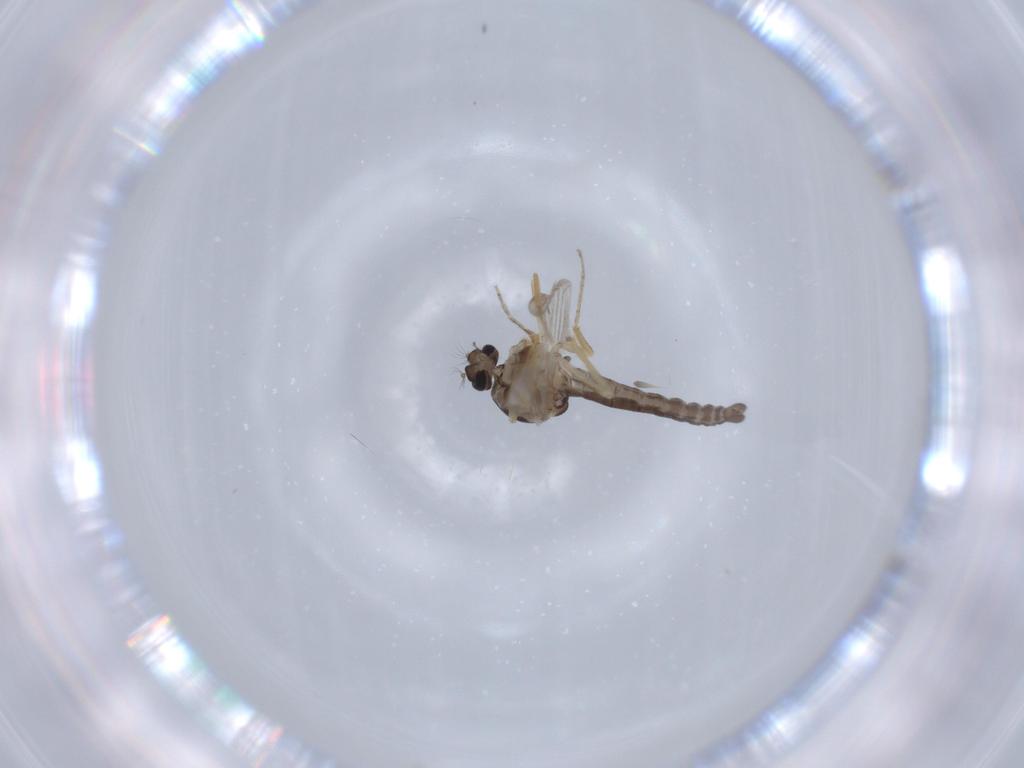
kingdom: Animalia
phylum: Arthropoda
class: Insecta
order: Diptera
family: Ceratopogonidae
